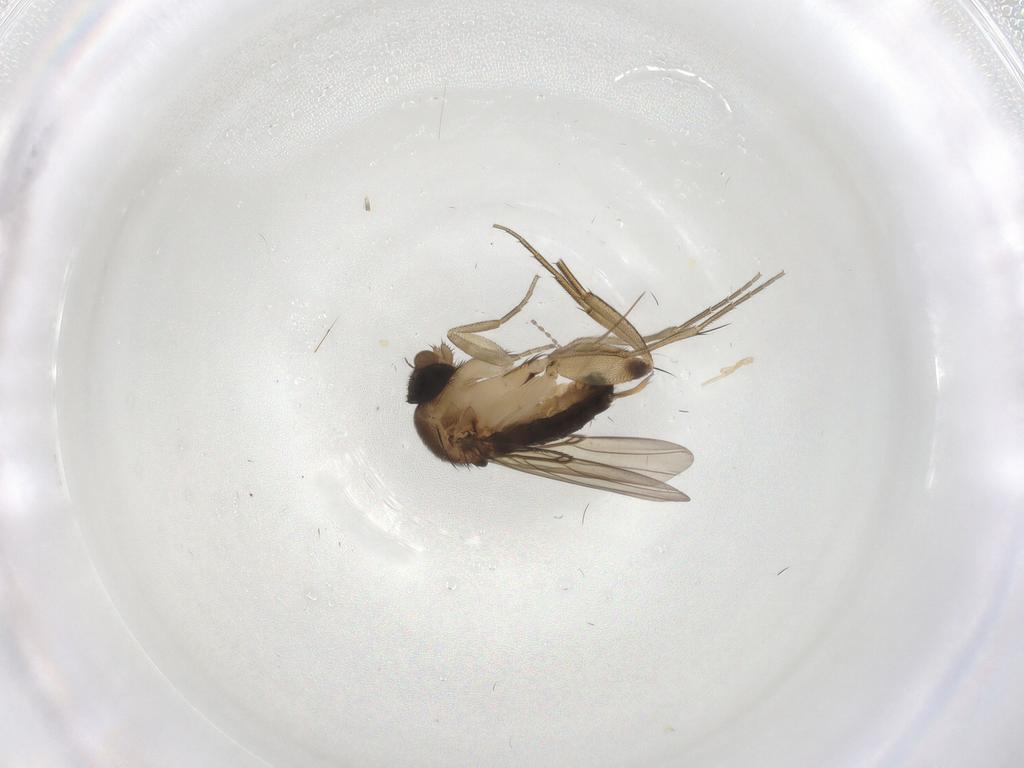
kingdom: Animalia
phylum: Arthropoda
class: Insecta
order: Diptera
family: Phoridae
